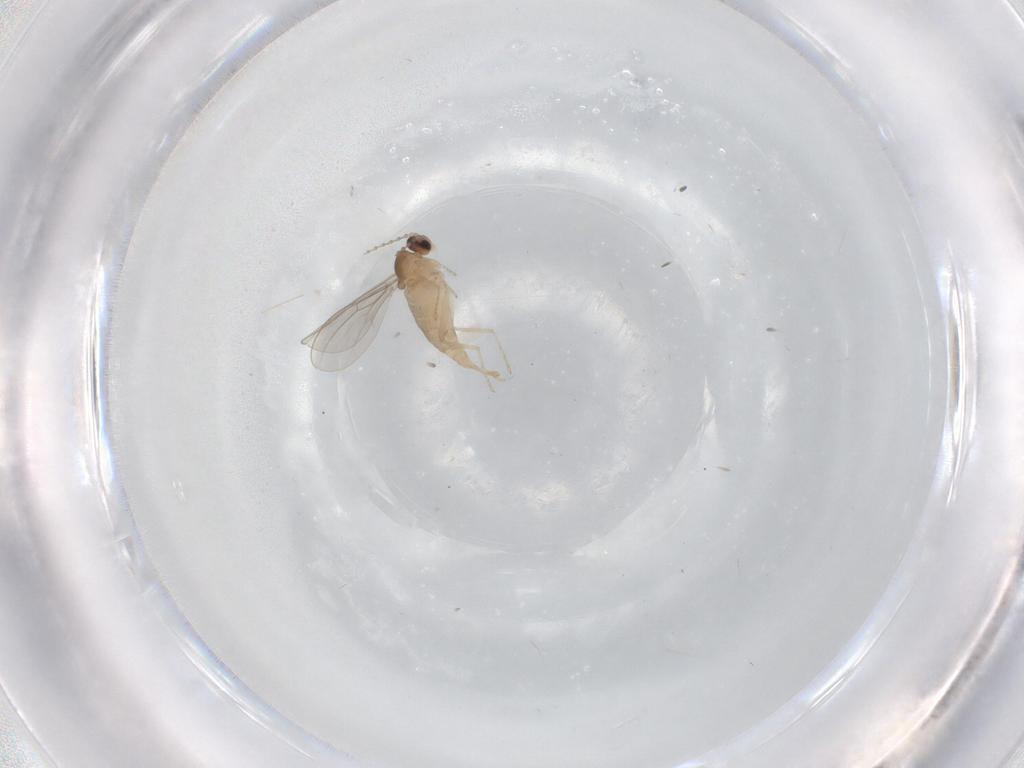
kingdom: Animalia
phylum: Arthropoda
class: Insecta
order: Diptera
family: Cecidomyiidae
